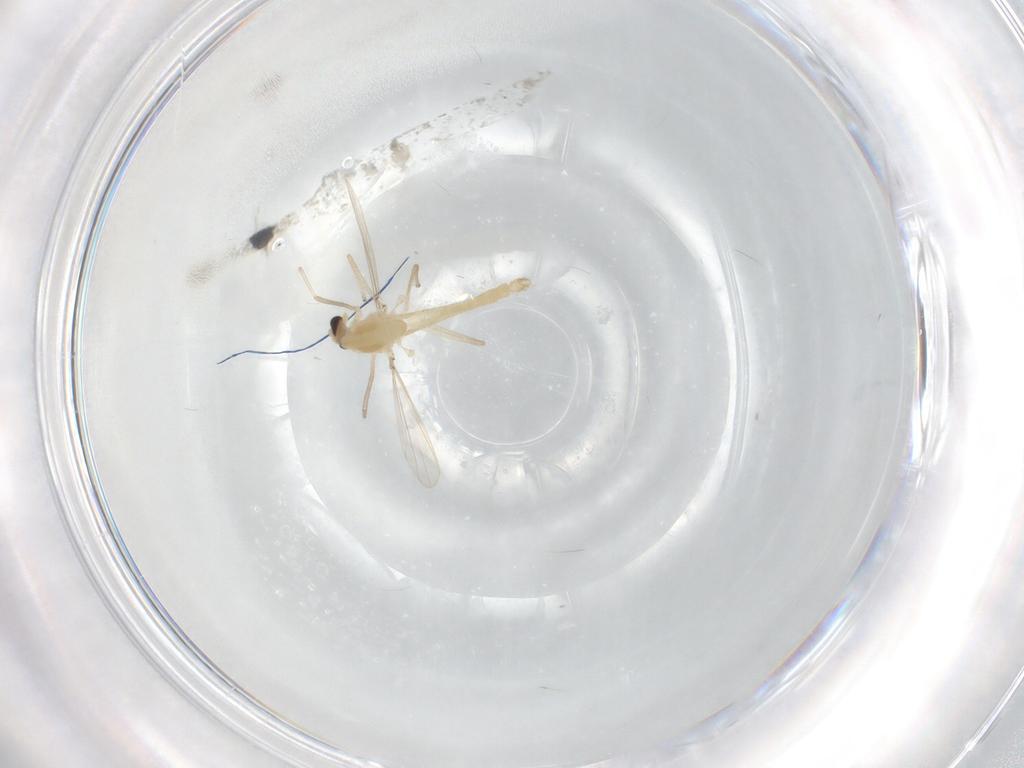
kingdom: Animalia
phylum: Arthropoda
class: Insecta
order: Diptera
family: Chironomidae
